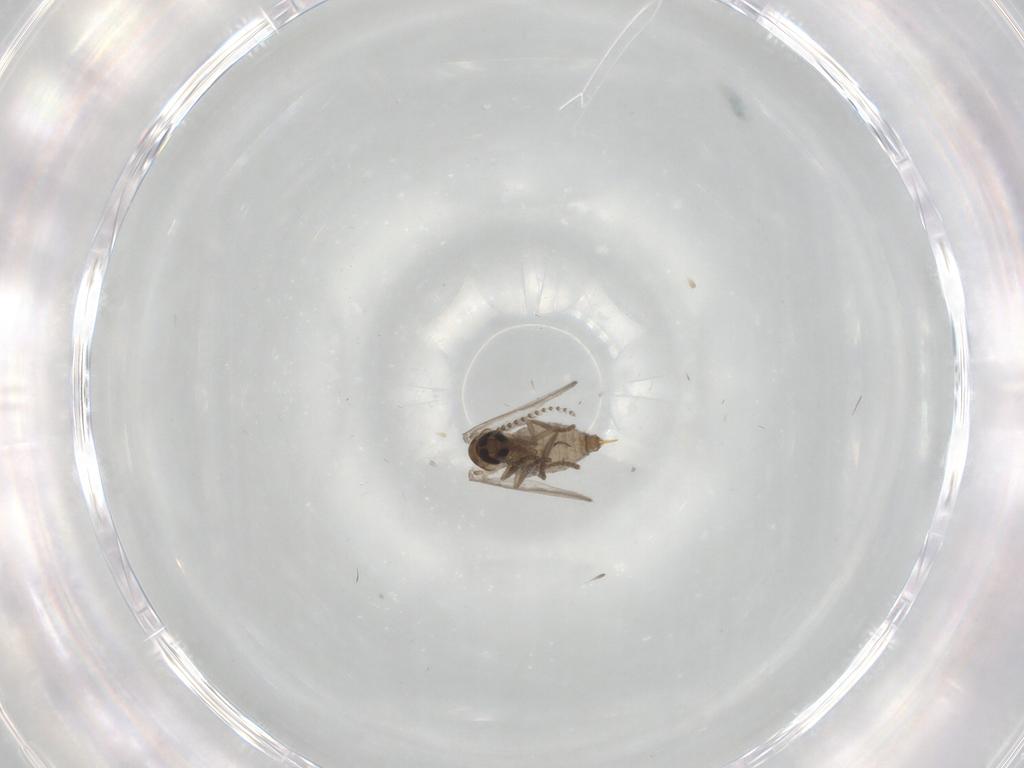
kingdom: Animalia
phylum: Arthropoda
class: Insecta
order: Diptera
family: Psychodidae
